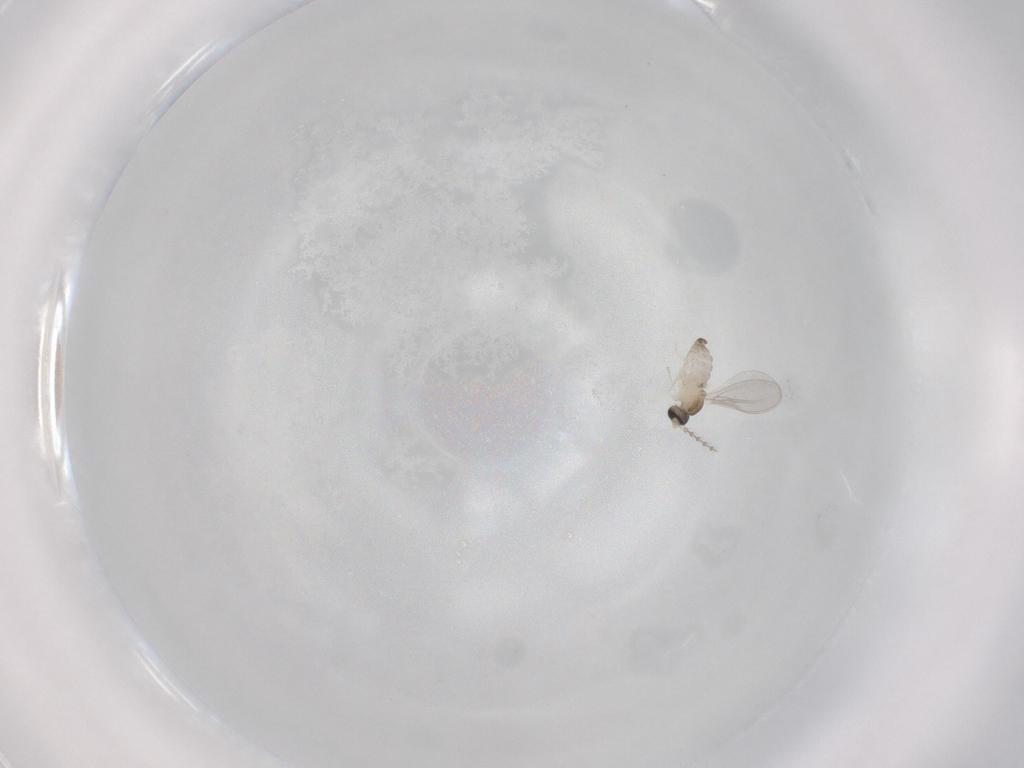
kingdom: Animalia
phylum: Arthropoda
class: Insecta
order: Diptera
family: Cecidomyiidae
